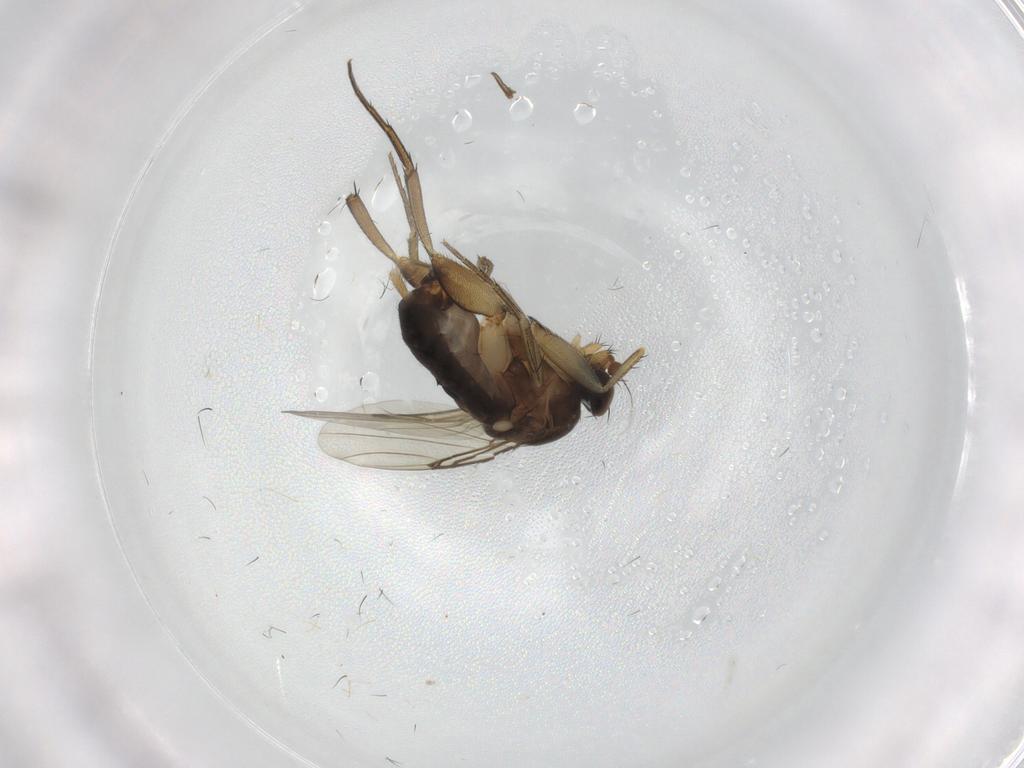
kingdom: Animalia
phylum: Arthropoda
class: Insecta
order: Diptera
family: Phoridae
